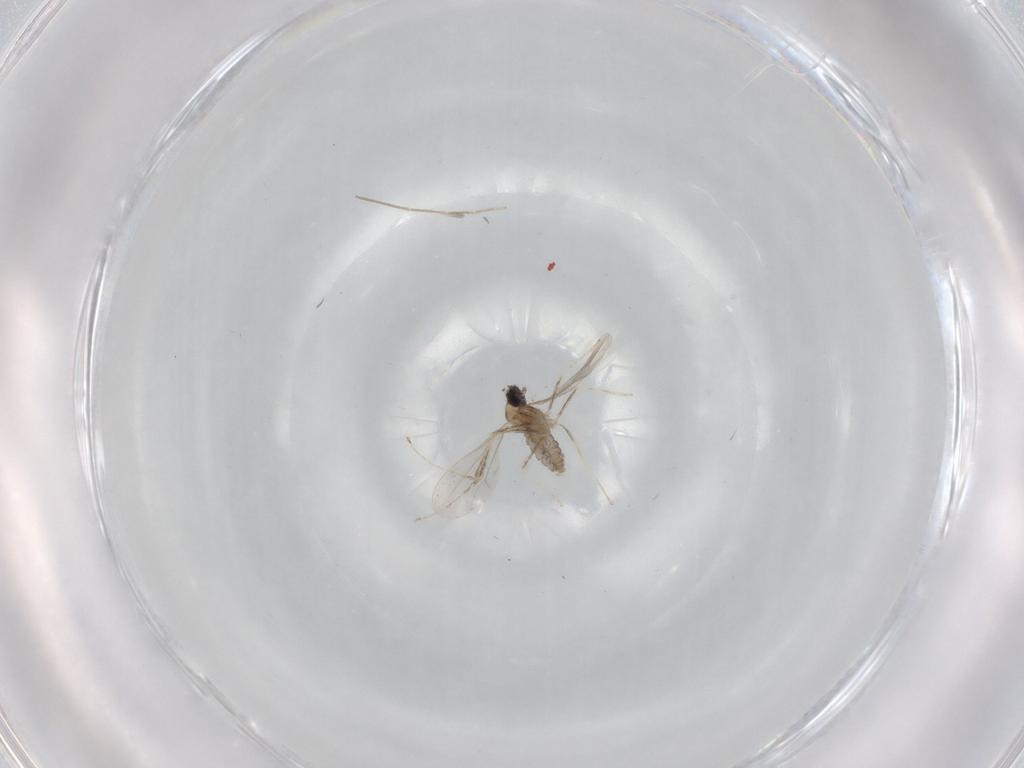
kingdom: Animalia
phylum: Arthropoda
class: Insecta
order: Diptera
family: Cecidomyiidae
